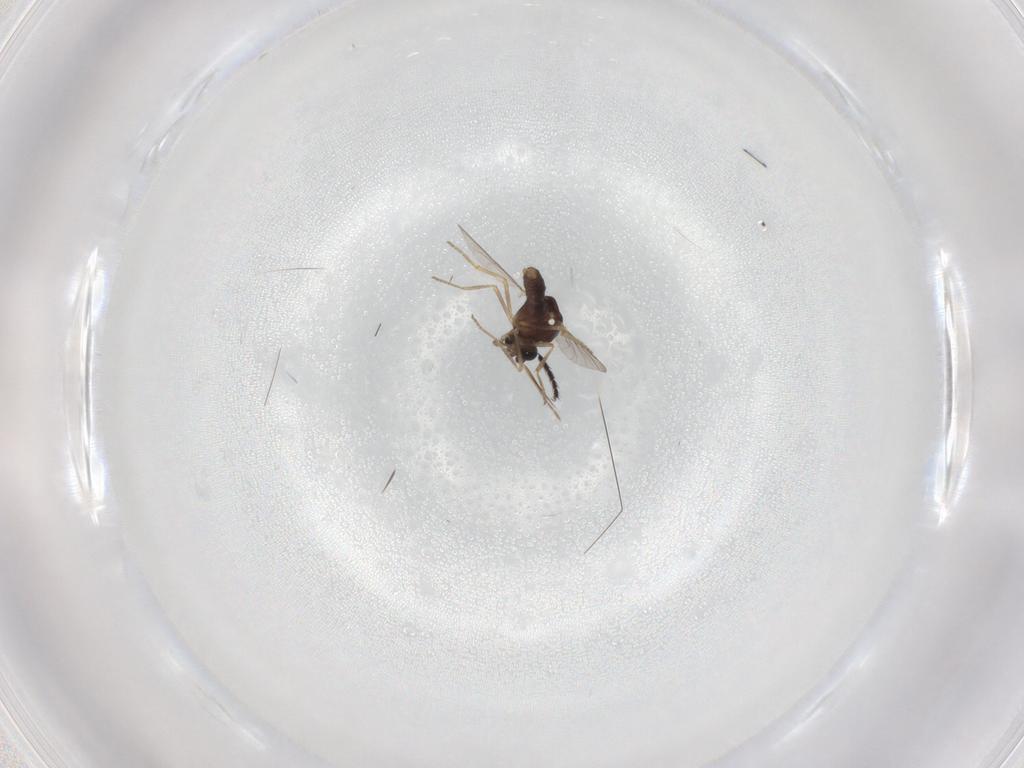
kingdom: Animalia
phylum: Arthropoda
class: Insecta
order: Diptera
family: Ceratopogonidae
